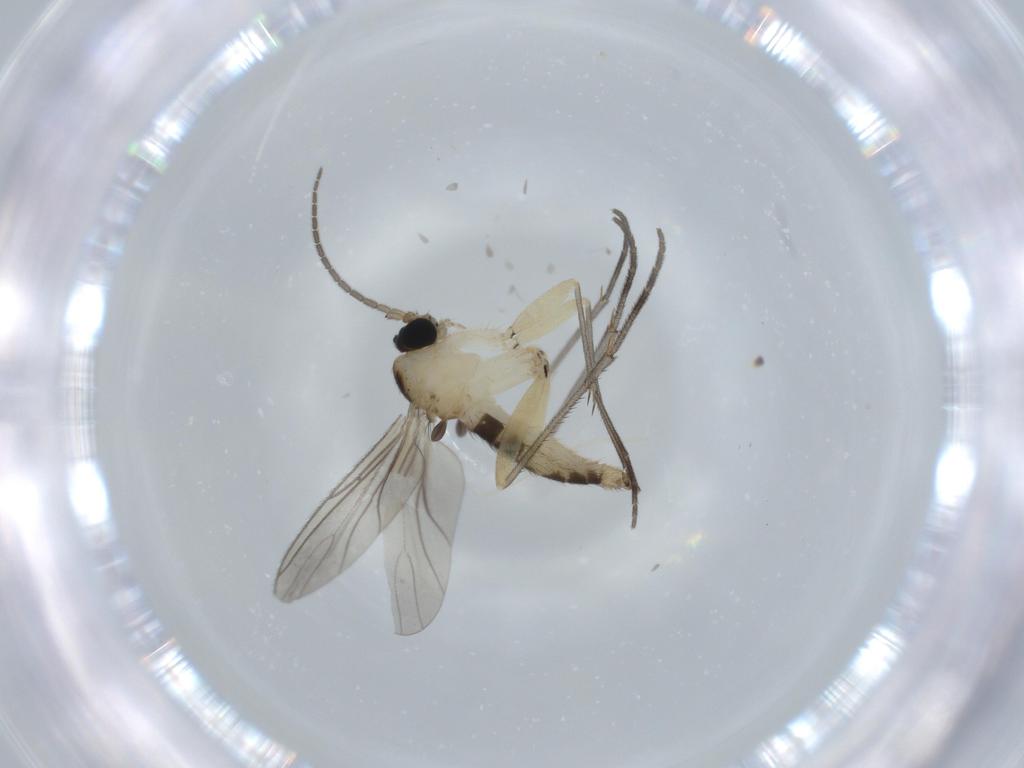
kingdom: Animalia
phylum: Arthropoda
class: Insecta
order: Diptera
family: Sciaridae
